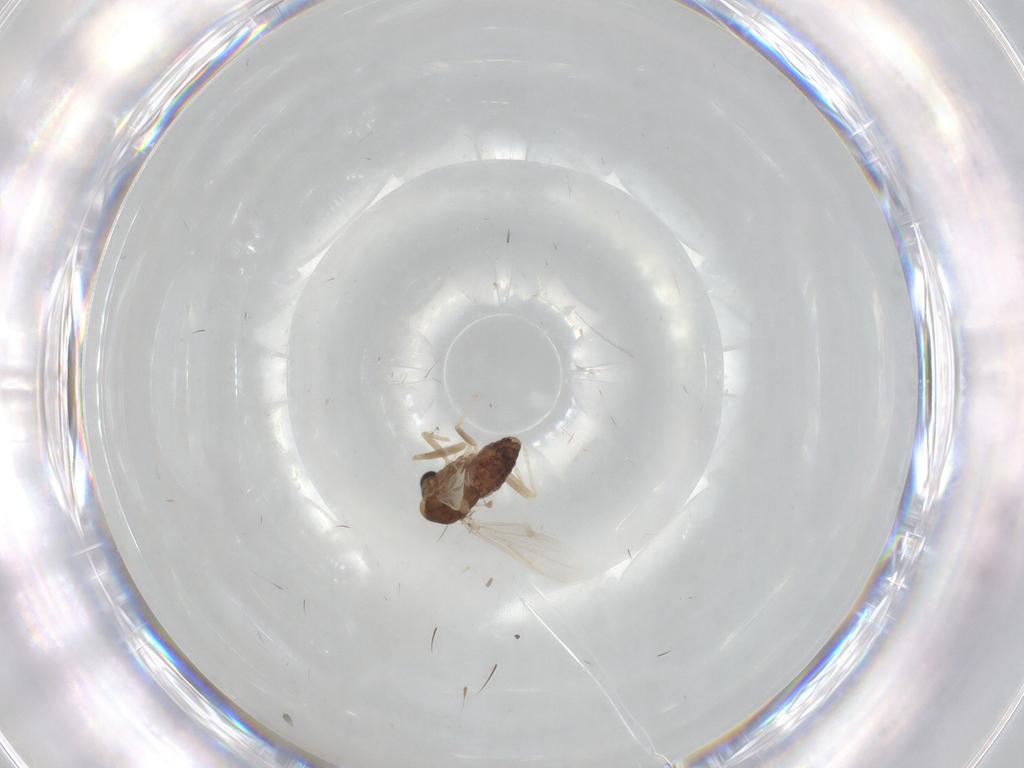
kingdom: Animalia
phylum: Arthropoda
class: Insecta
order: Diptera
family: Chironomidae
